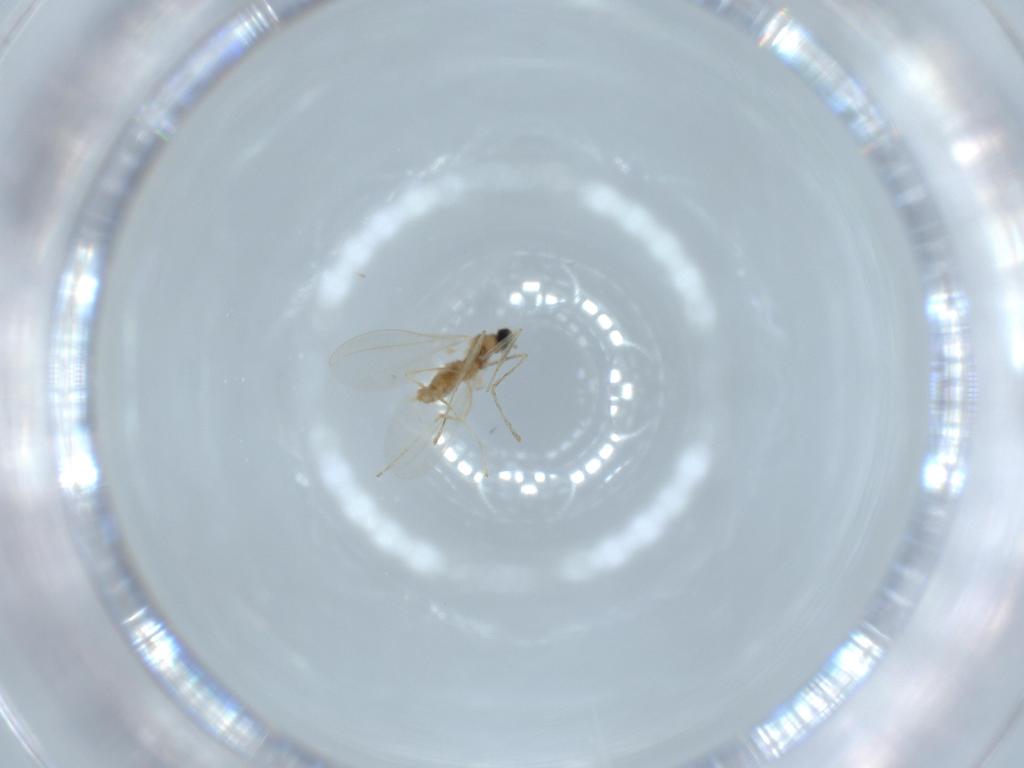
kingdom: Animalia
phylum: Arthropoda
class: Insecta
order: Diptera
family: Cecidomyiidae
